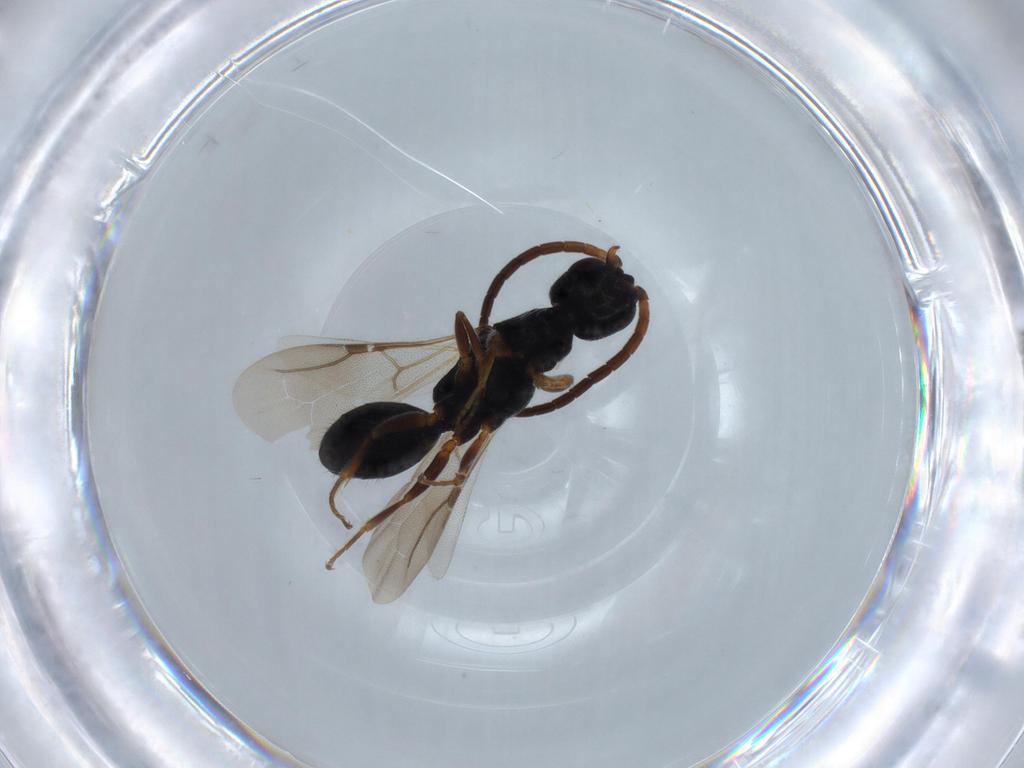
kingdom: Animalia
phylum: Arthropoda
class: Insecta
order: Hymenoptera
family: Bethylidae
